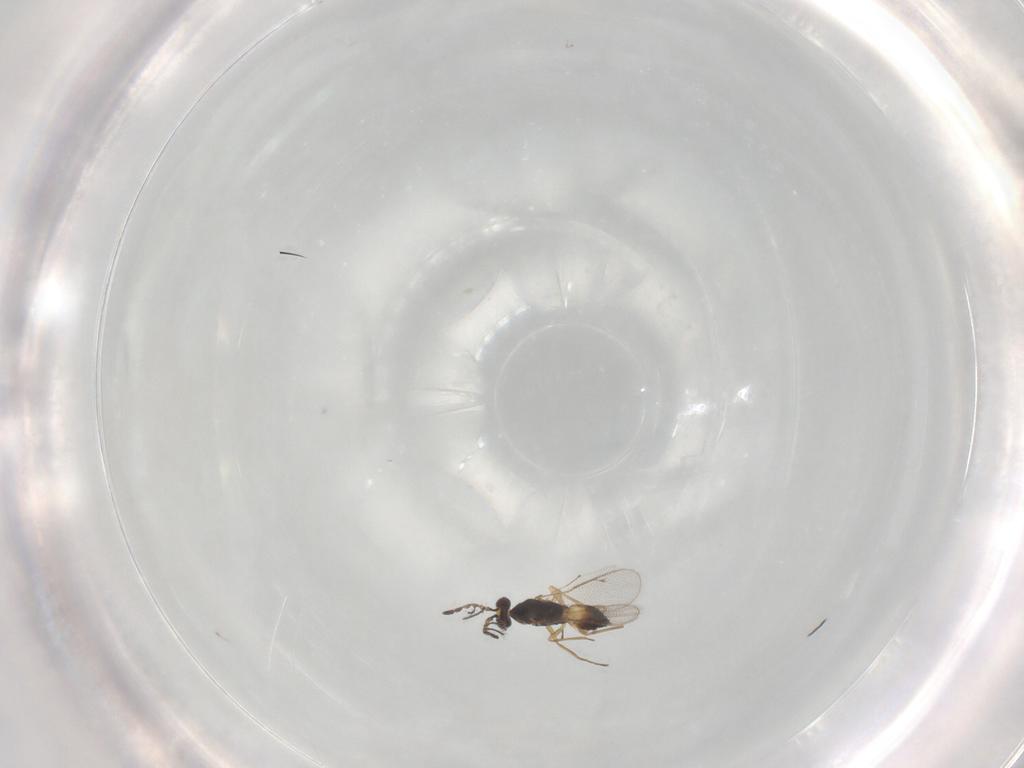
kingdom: Animalia
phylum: Arthropoda
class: Insecta
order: Hymenoptera
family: Eulophidae
